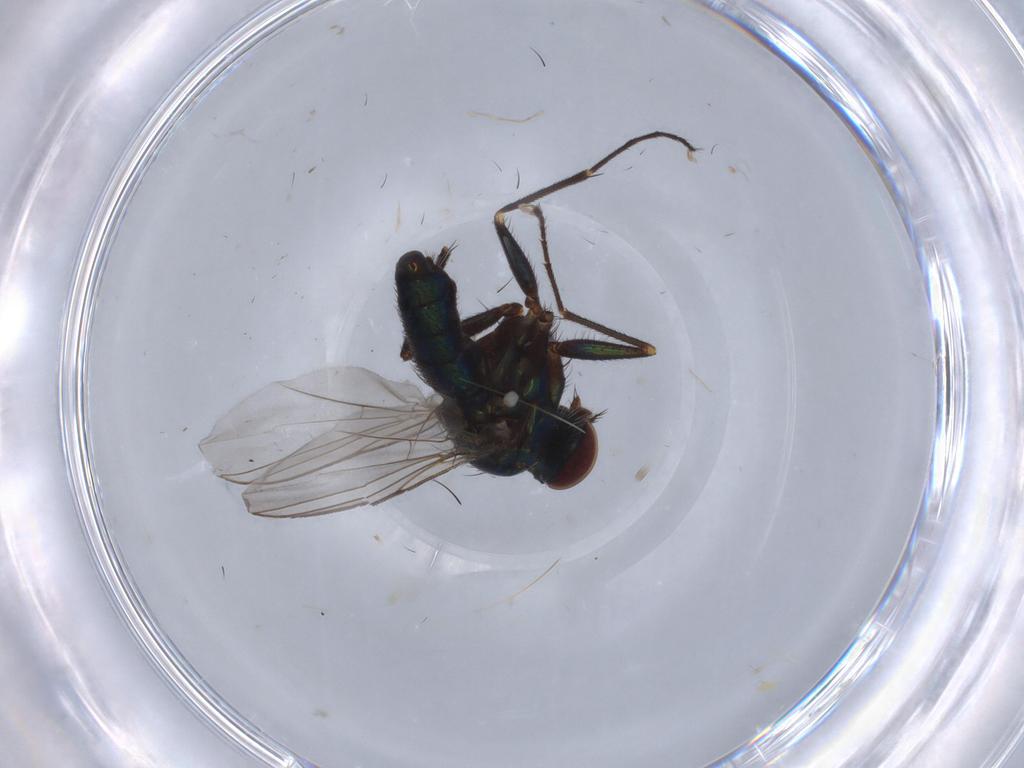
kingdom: Animalia
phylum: Arthropoda
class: Insecta
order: Diptera
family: Dolichopodidae
